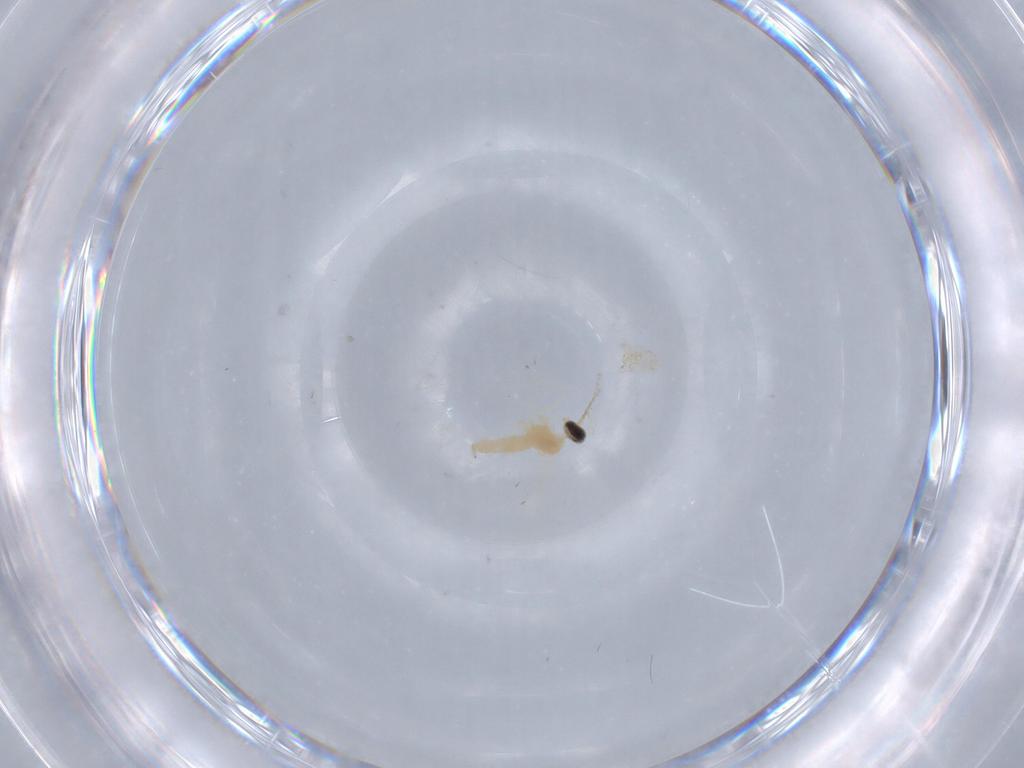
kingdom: Animalia
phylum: Arthropoda
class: Insecta
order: Diptera
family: Cecidomyiidae
